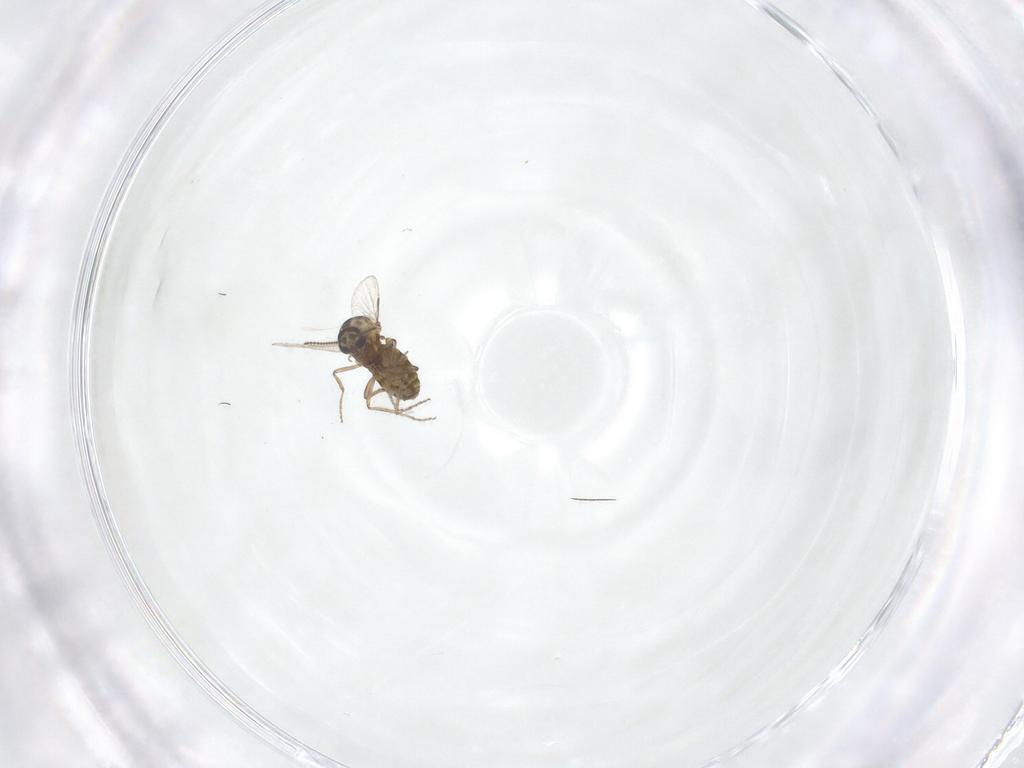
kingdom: Animalia
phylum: Arthropoda
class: Insecta
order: Diptera
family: Ceratopogonidae
